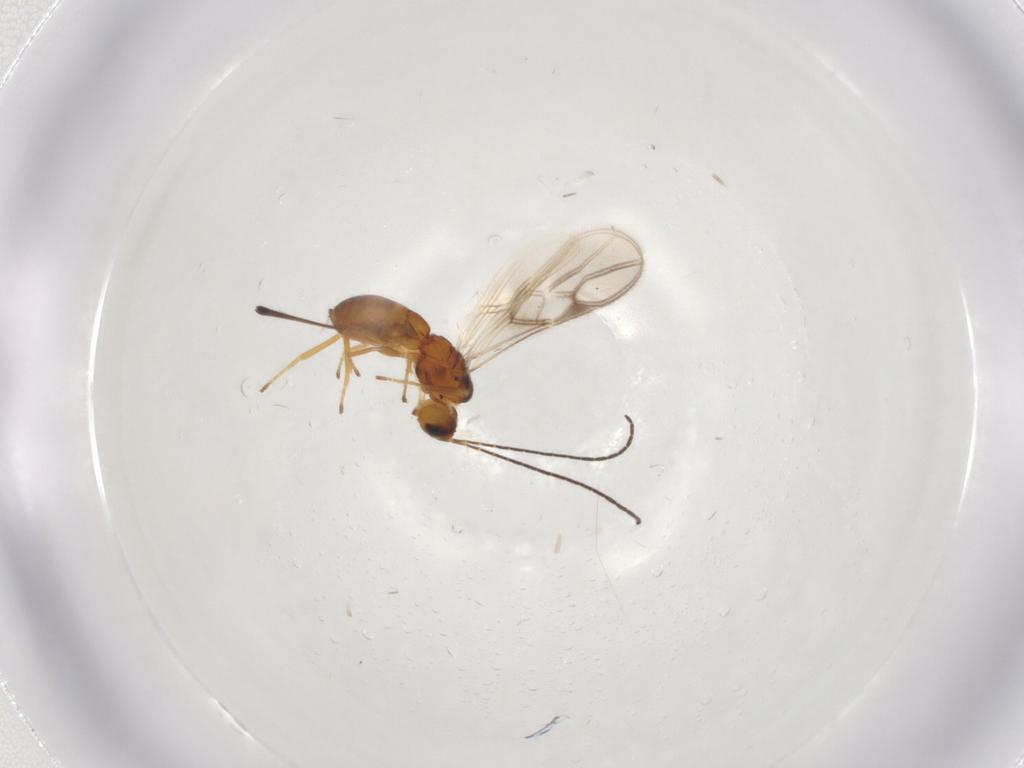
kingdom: Animalia
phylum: Arthropoda
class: Insecta
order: Hymenoptera
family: Braconidae
